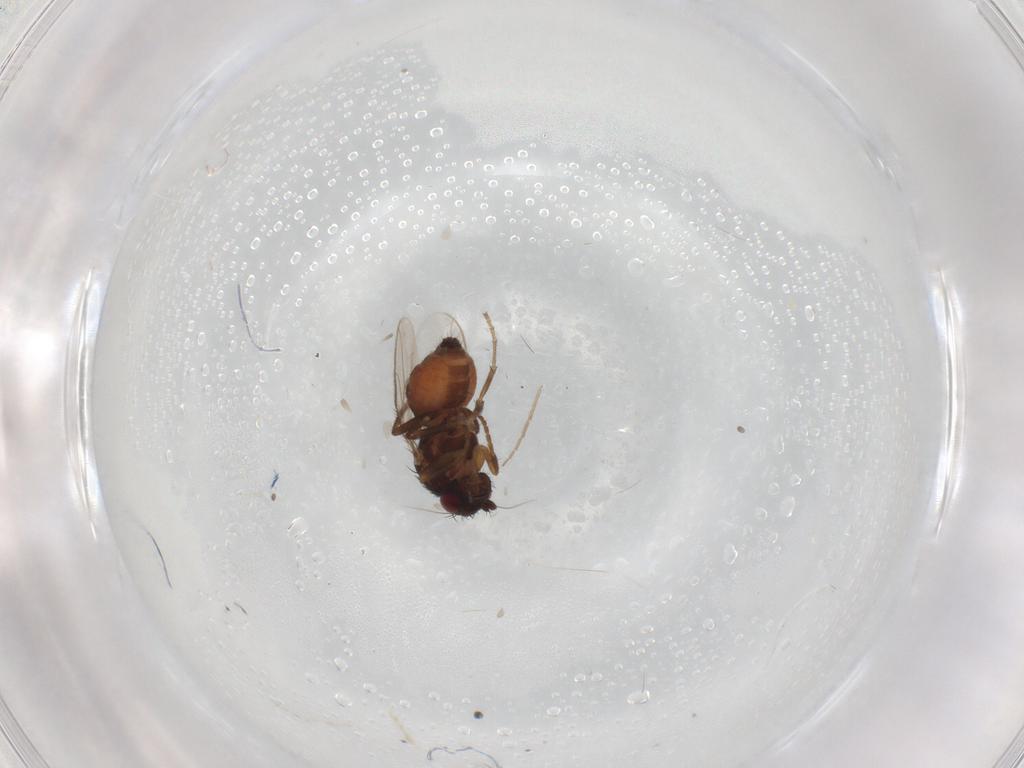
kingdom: Animalia
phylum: Arthropoda
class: Insecta
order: Diptera
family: Sphaeroceridae
